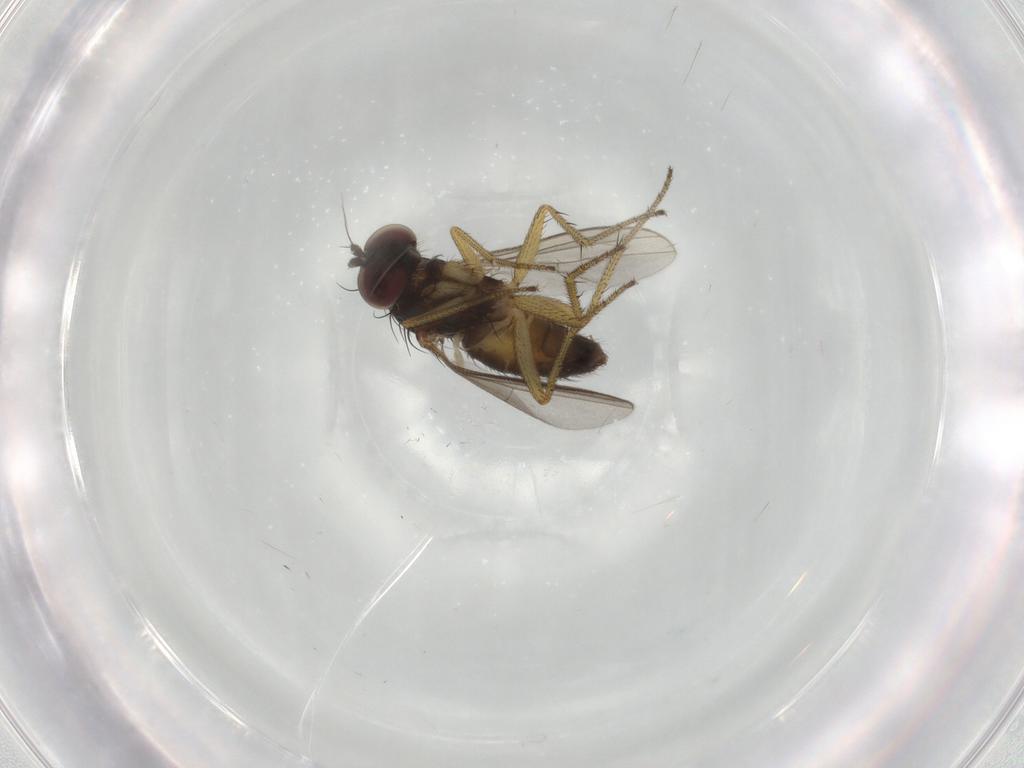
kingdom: Animalia
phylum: Arthropoda
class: Insecta
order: Diptera
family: Dolichopodidae
